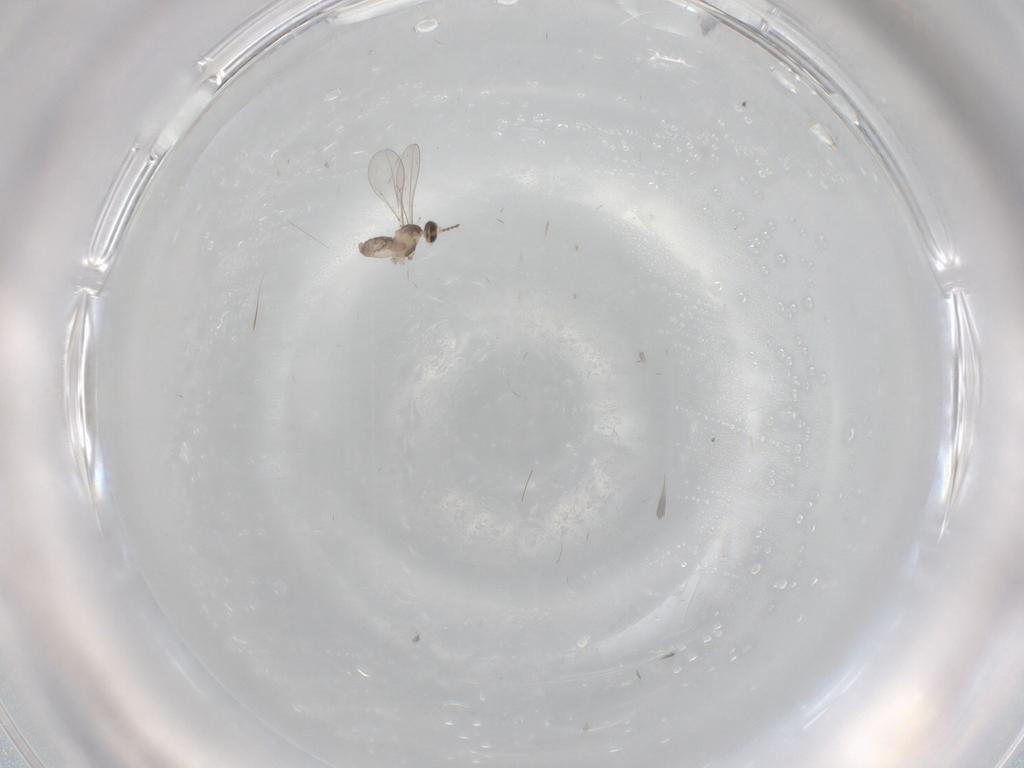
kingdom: Animalia
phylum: Arthropoda
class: Insecta
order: Diptera
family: Cecidomyiidae
